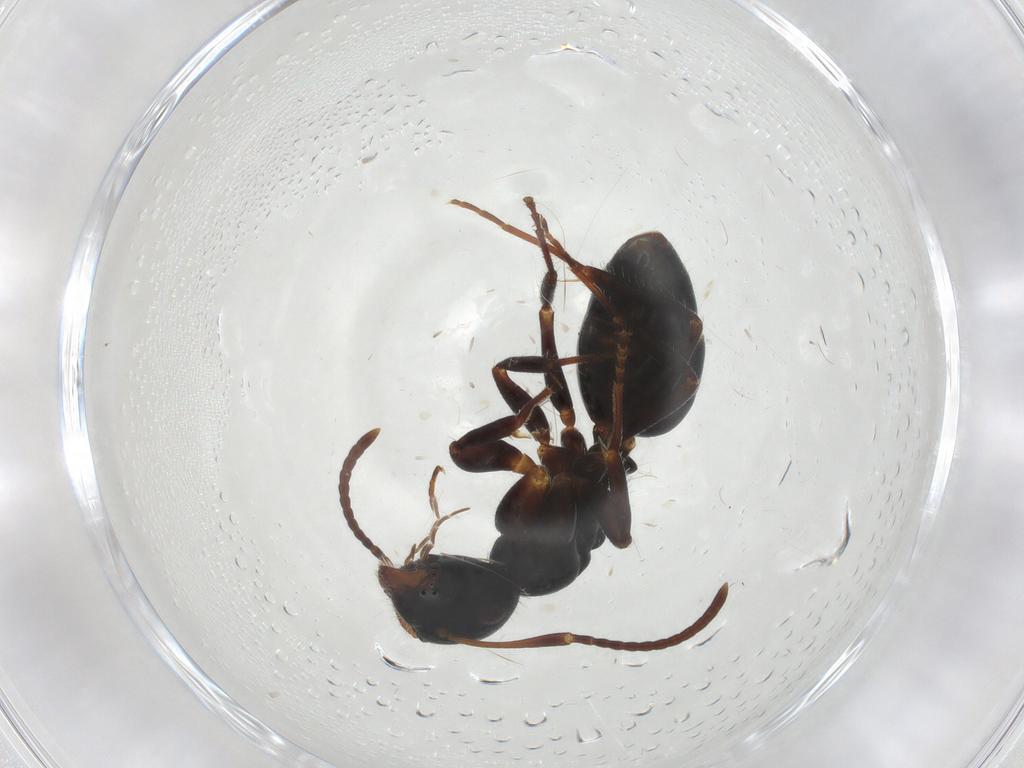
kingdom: Animalia
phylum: Arthropoda
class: Insecta
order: Hymenoptera
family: Formicidae
